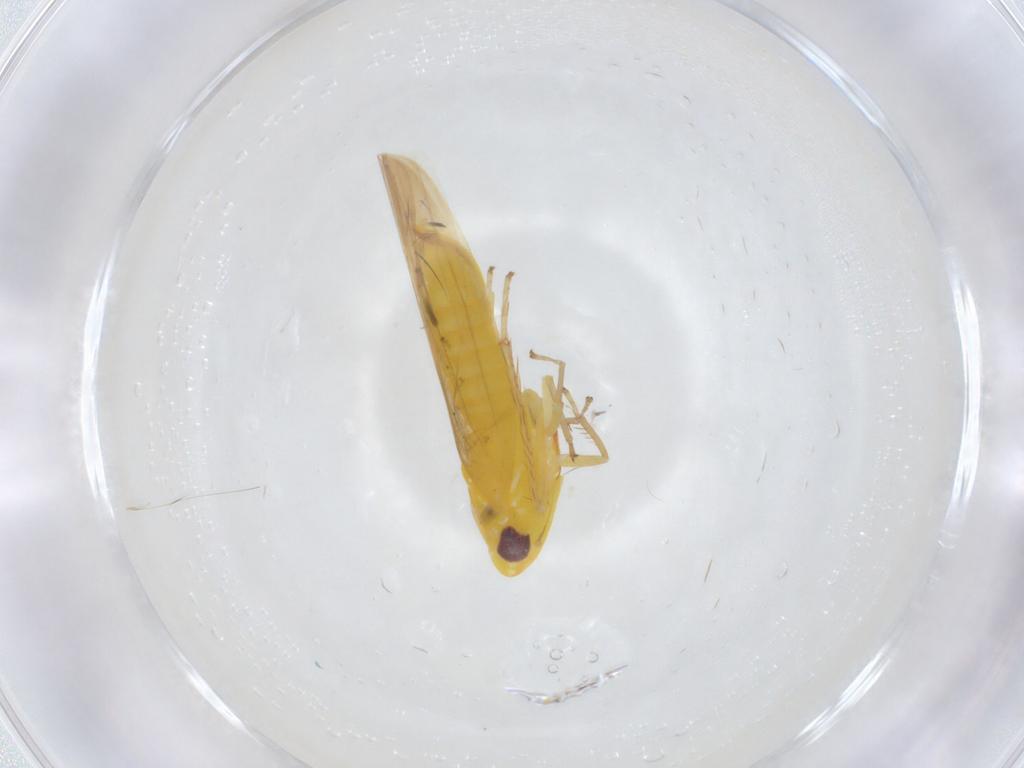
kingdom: Animalia
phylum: Arthropoda
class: Insecta
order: Hemiptera
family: Cicadellidae
